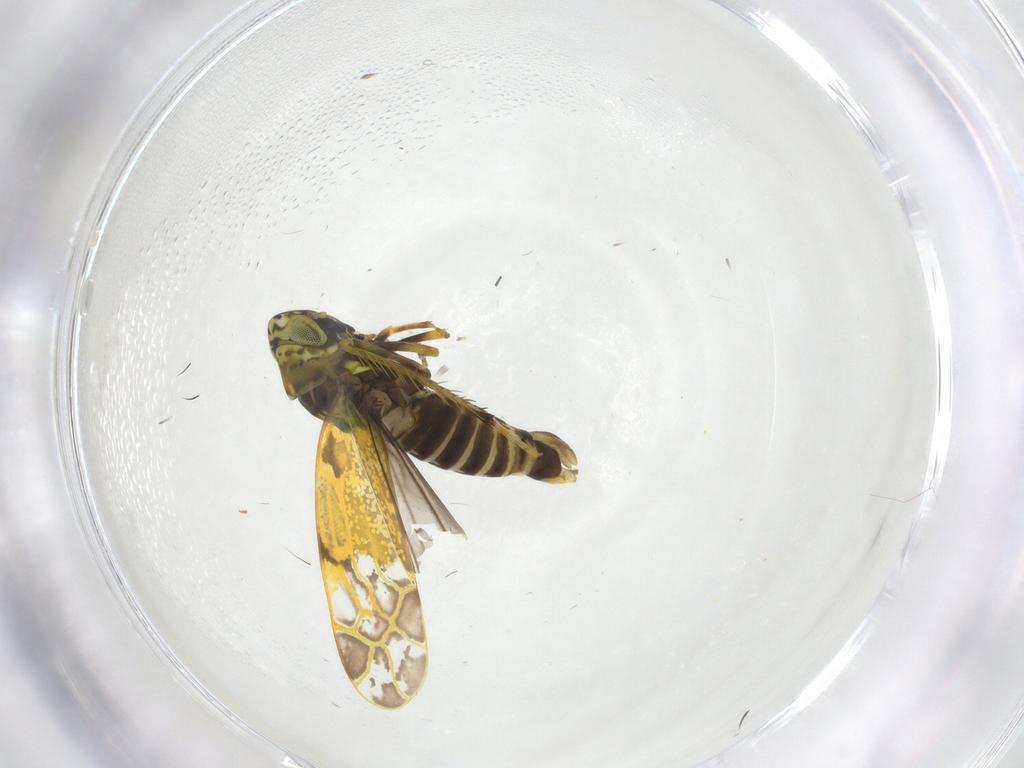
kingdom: Animalia
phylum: Arthropoda
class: Insecta
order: Hemiptera
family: Cicadellidae
